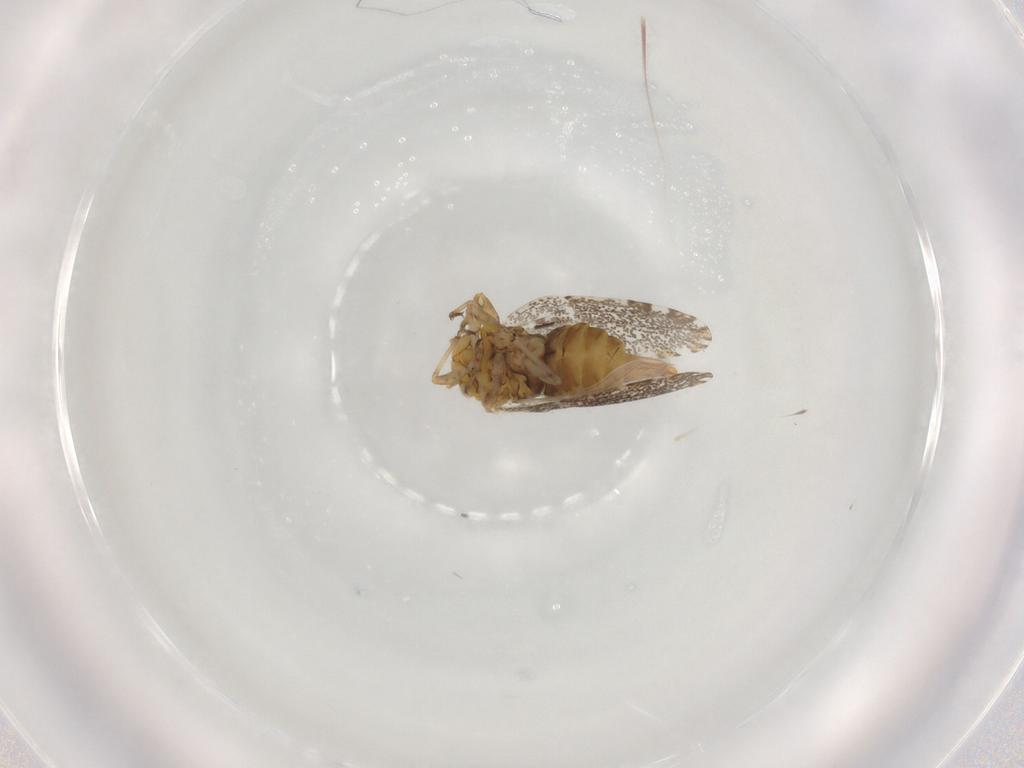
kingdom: Animalia
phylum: Arthropoda
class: Insecta
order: Hemiptera
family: Psylloidea_incertae_sedis
